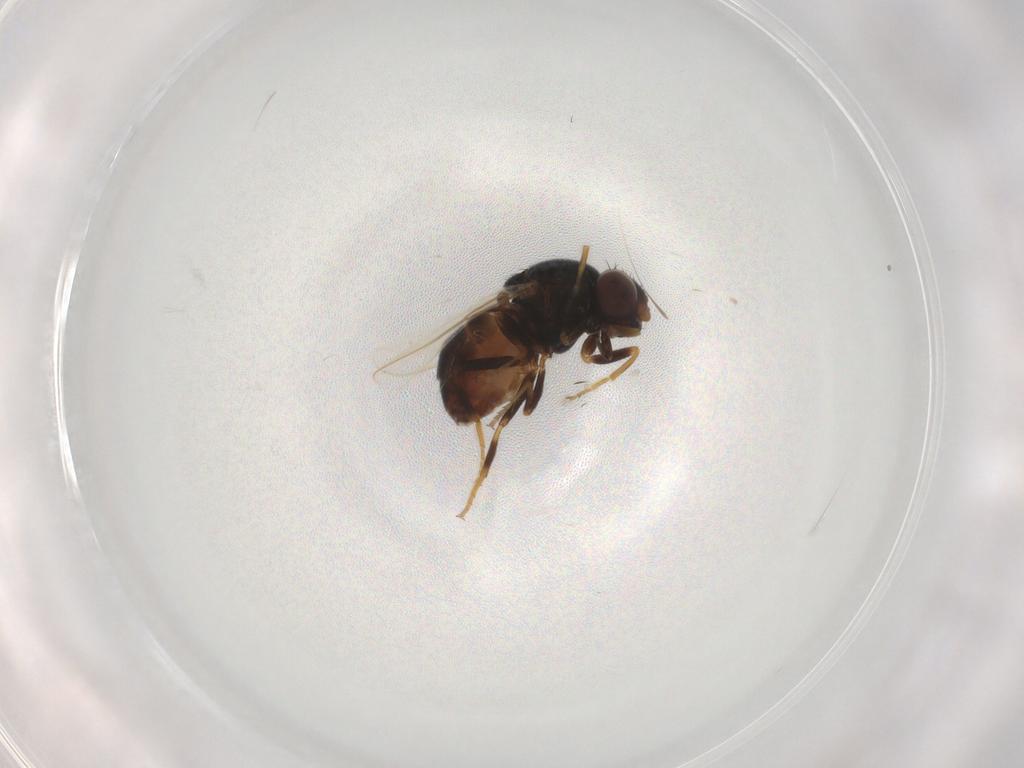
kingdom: Animalia
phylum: Arthropoda
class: Insecta
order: Diptera
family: Chloropidae
